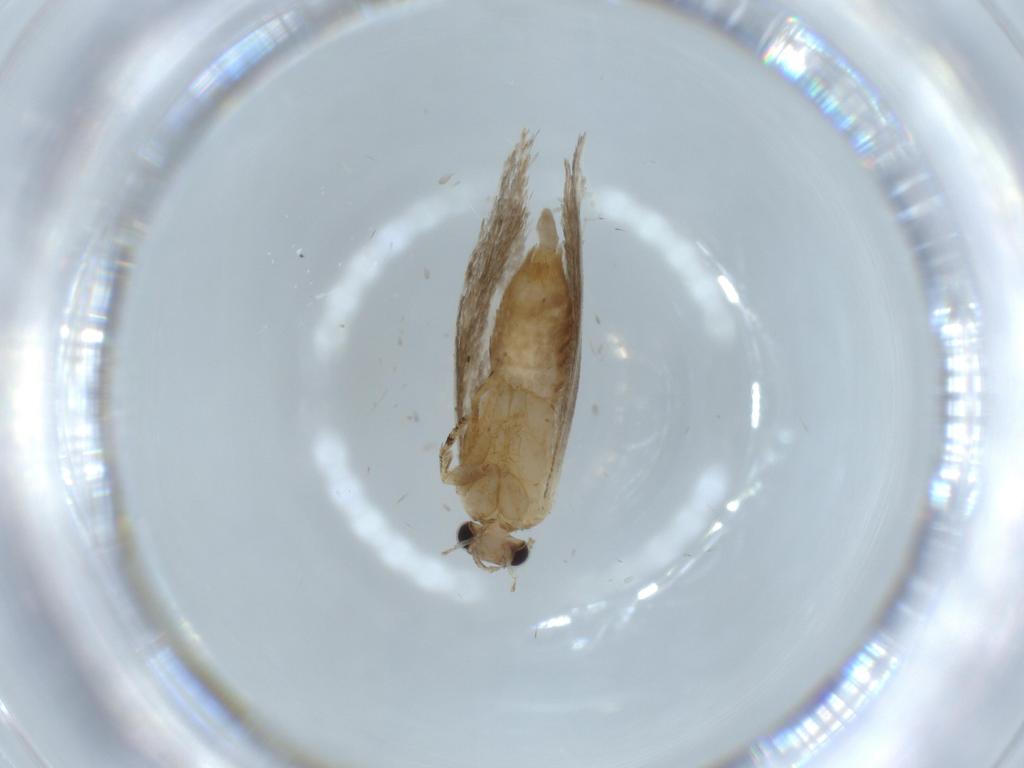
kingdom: Animalia
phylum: Arthropoda
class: Insecta
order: Lepidoptera
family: Tineidae
